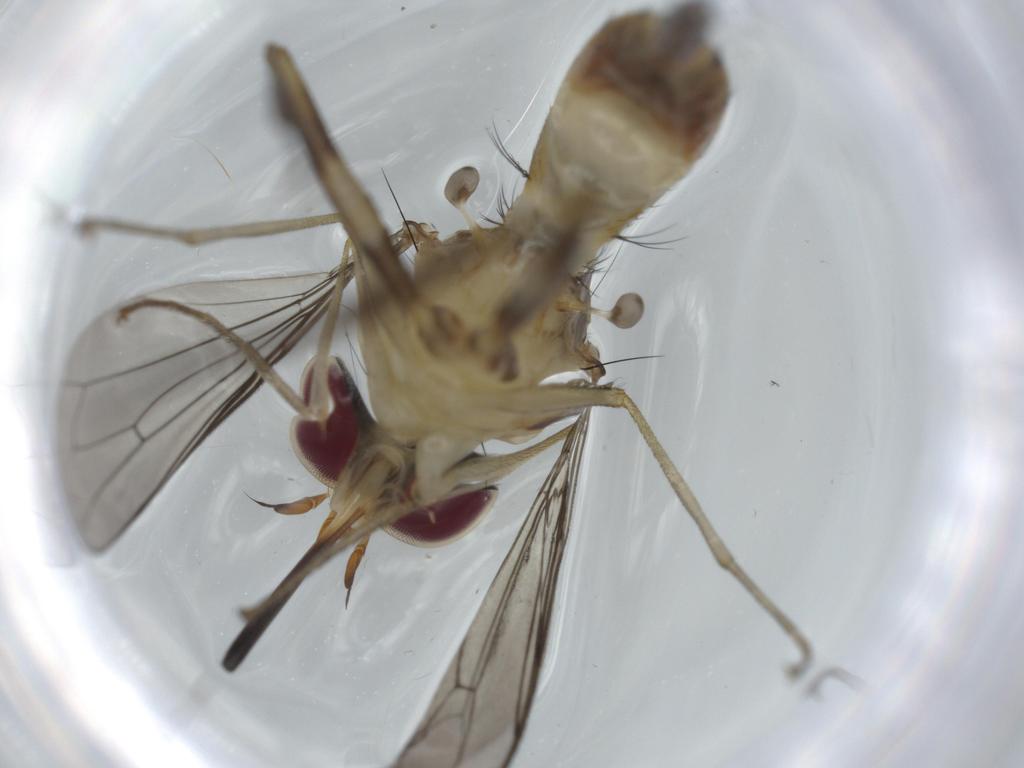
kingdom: Animalia
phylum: Arthropoda
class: Insecta
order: Diptera
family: Conopidae
